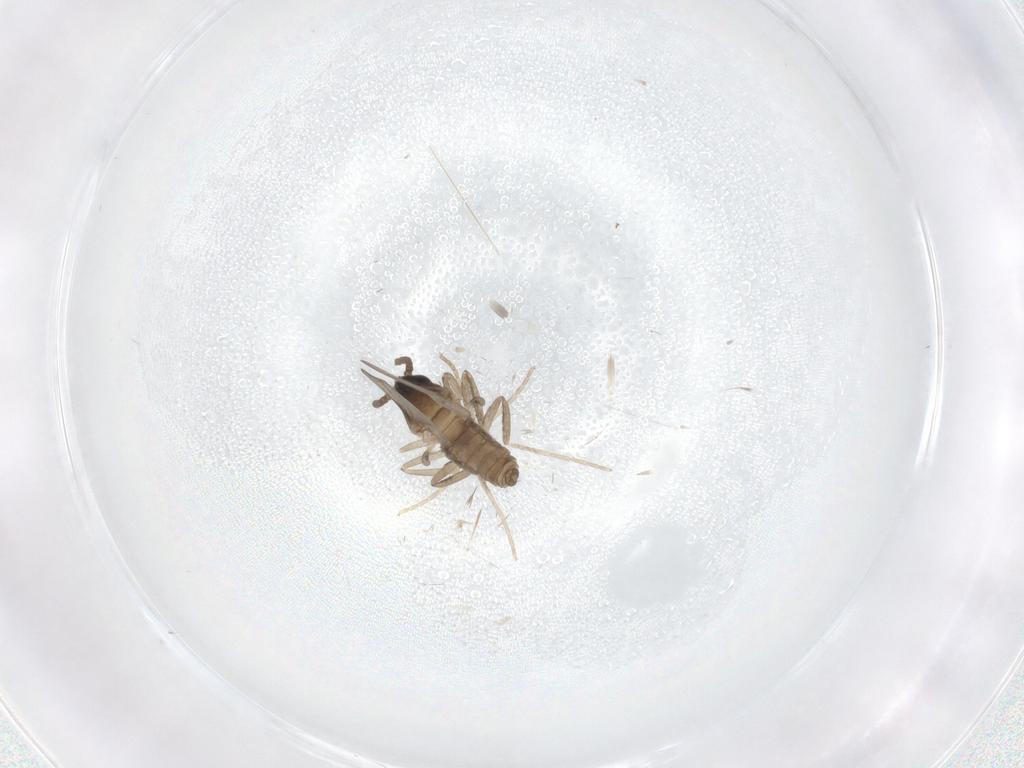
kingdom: Animalia
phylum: Arthropoda
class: Insecta
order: Diptera
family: Cecidomyiidae
